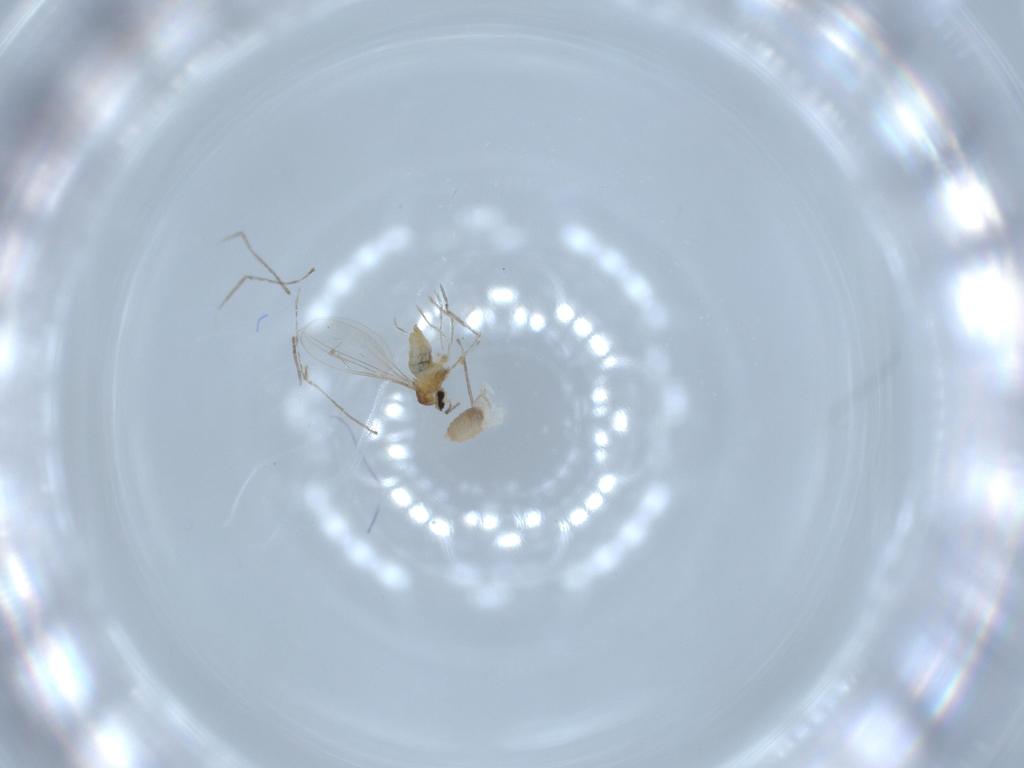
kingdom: Animalia
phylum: Arthropoda
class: Insecta
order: Diptera
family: Cecidomyiidae
